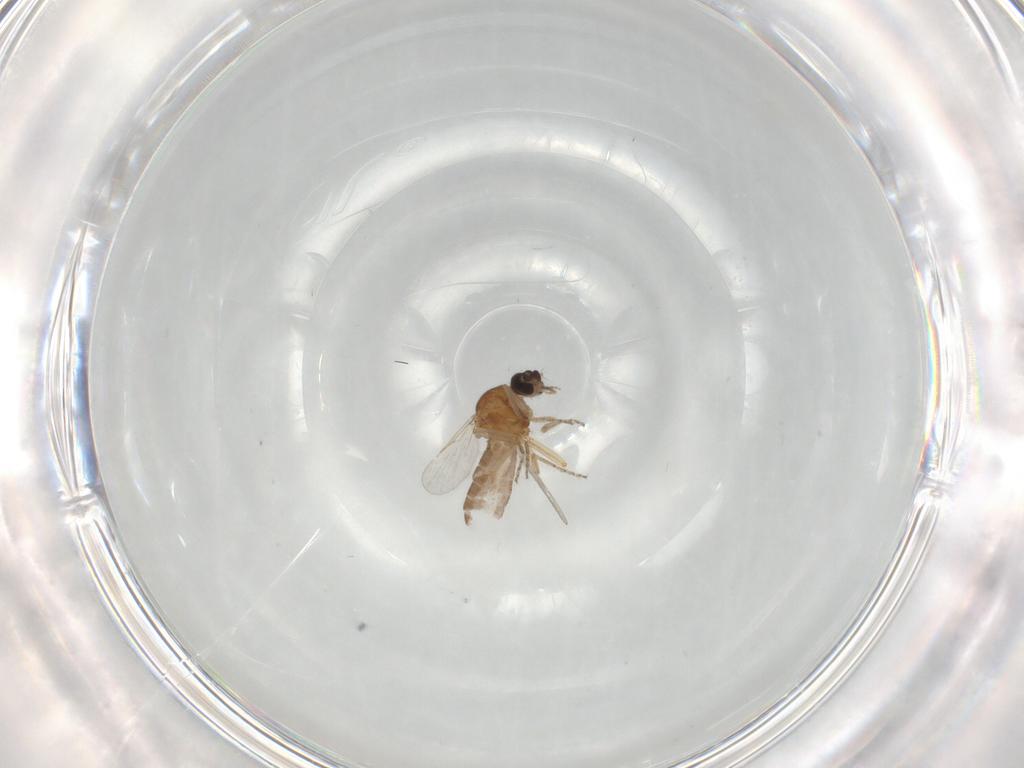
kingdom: Animalia
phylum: Arthropoda
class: Insecta
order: Diptera
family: Ceratopogonidae
